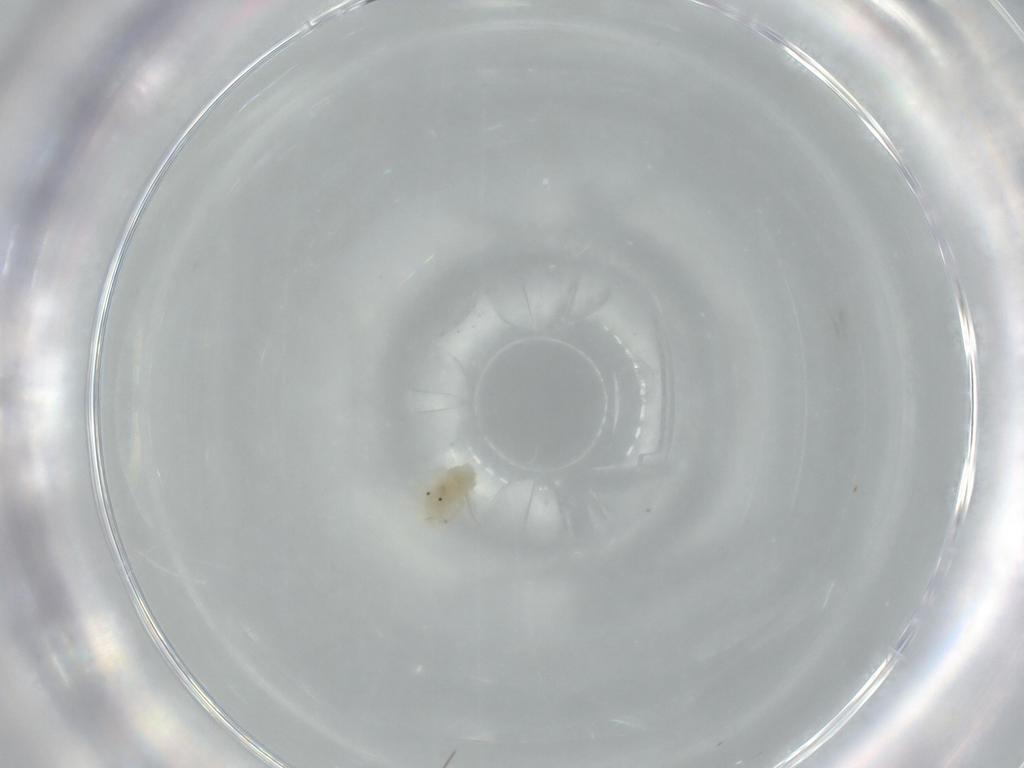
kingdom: Animalia
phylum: Arthropoda
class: Arachnida
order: Trombidiformes
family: Anystidae
